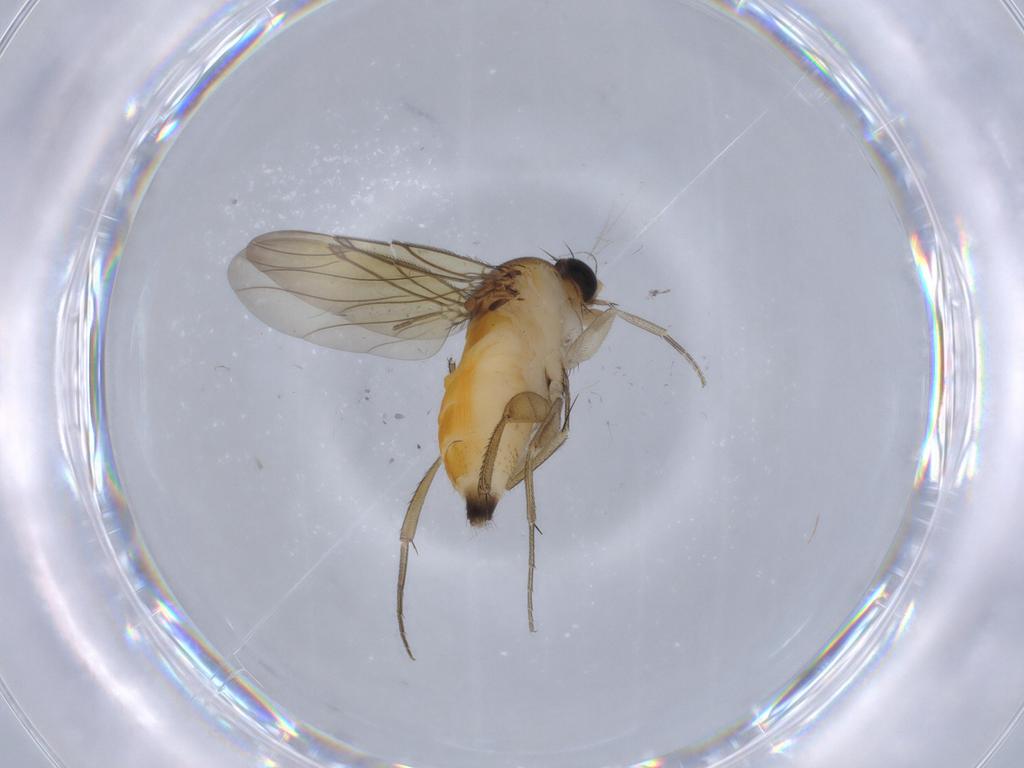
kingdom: Animalia
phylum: Arthropoda
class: Insecta
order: Diptera
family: Phoridae
